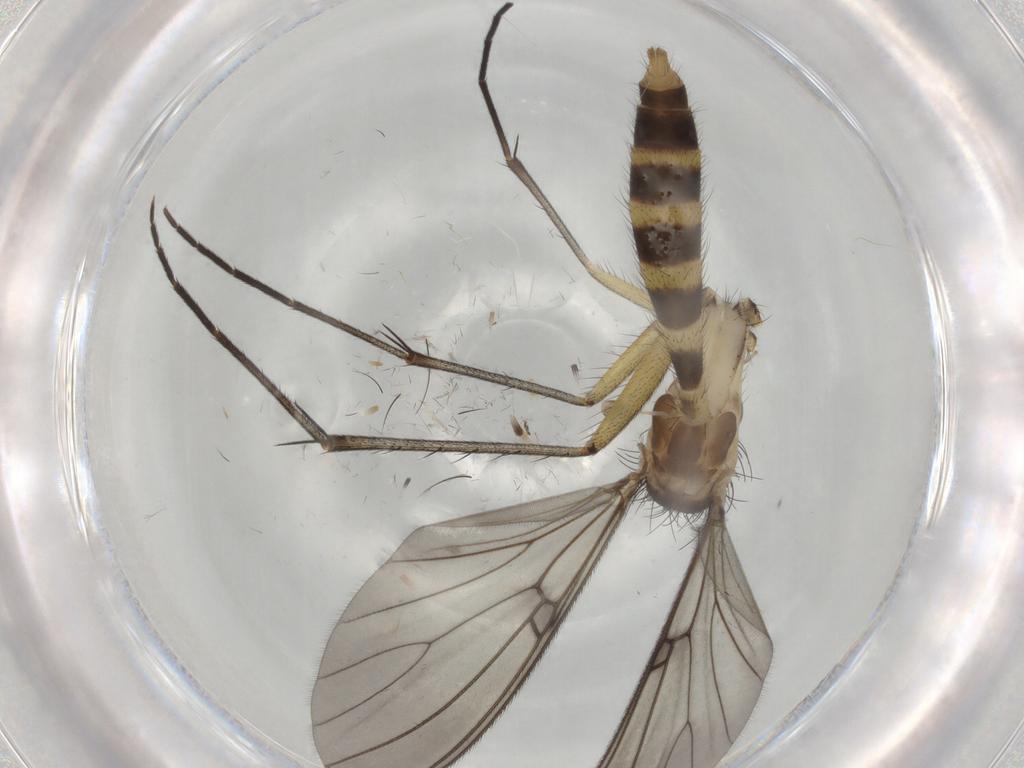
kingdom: Animalia
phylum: Arthropoda
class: Insecta
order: Diptera
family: Mycetophilidae
